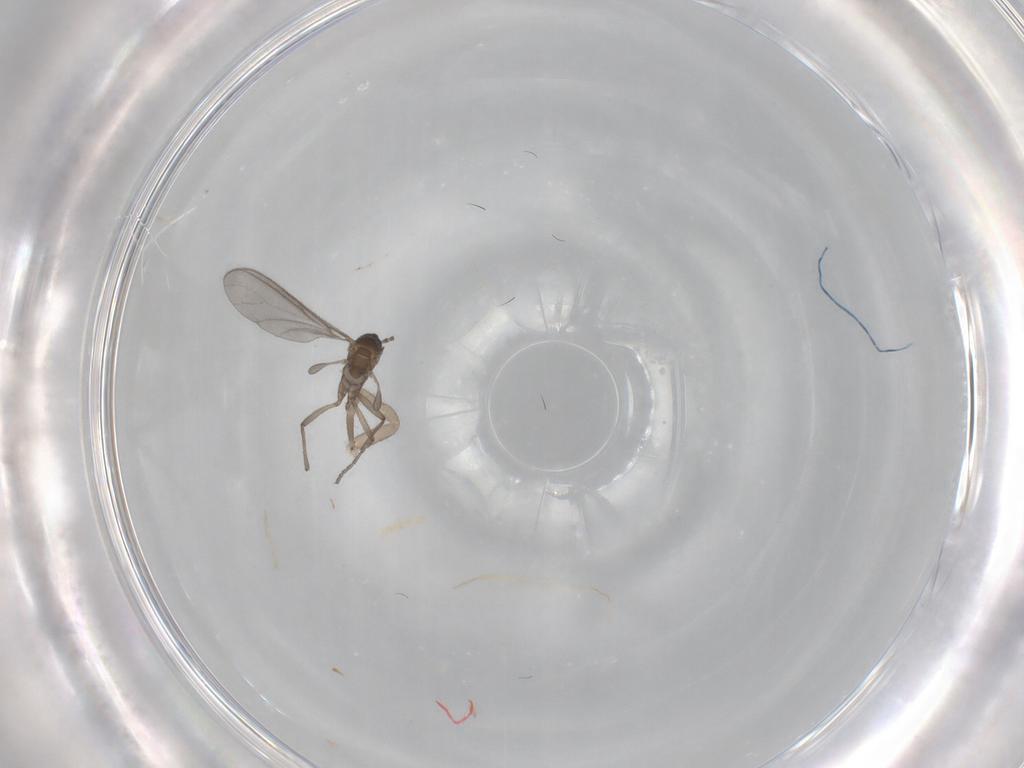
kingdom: Animalia
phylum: Arthropoda
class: Insecta
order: Diptera
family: Sciaridae
